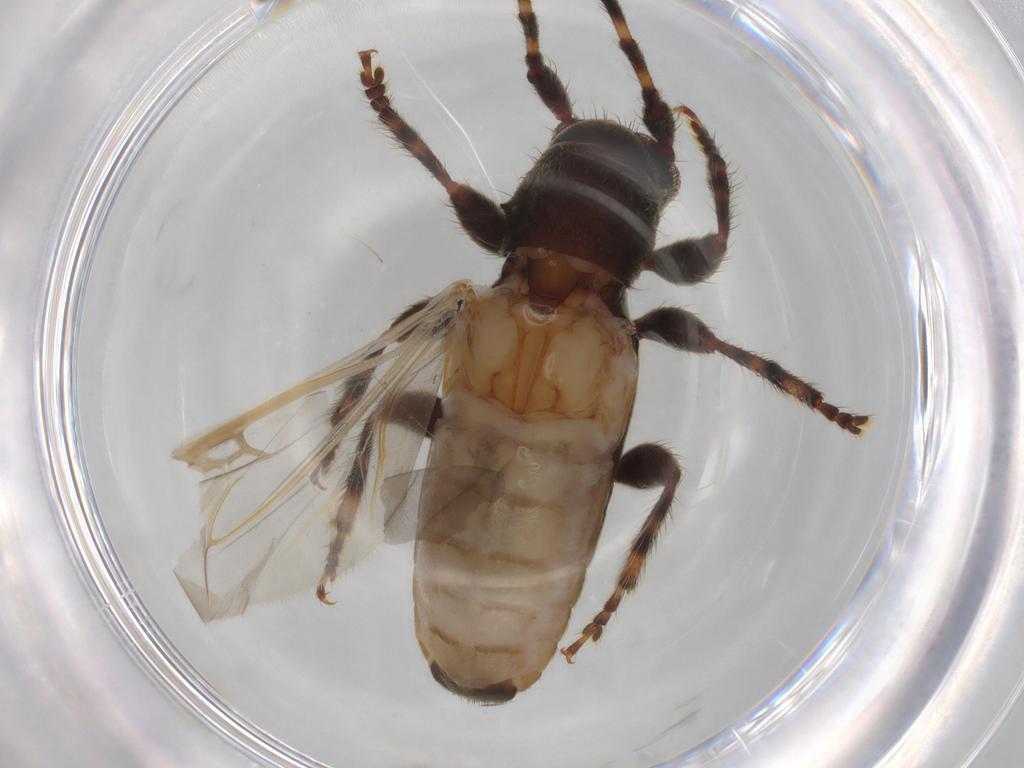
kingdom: Animalia
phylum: Arthropoda
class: Insecta
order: Coleoptera
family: Cerambycidae
